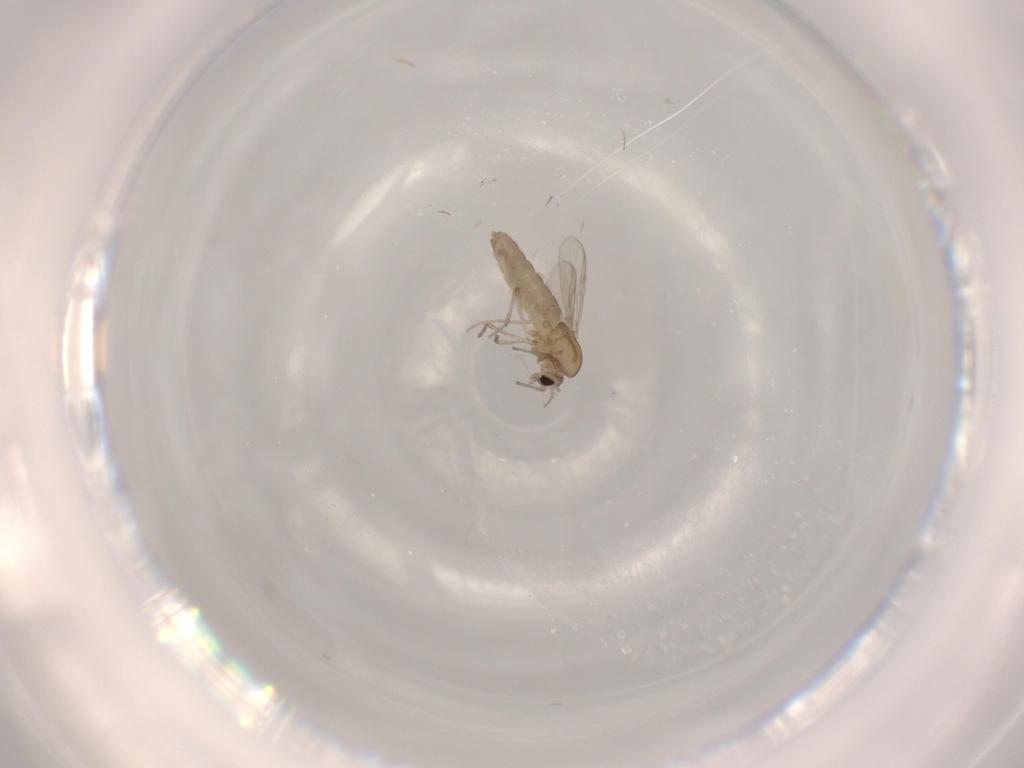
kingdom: Animalia
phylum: Arthropoda
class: Insecta
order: Diptera
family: Chironomidae
